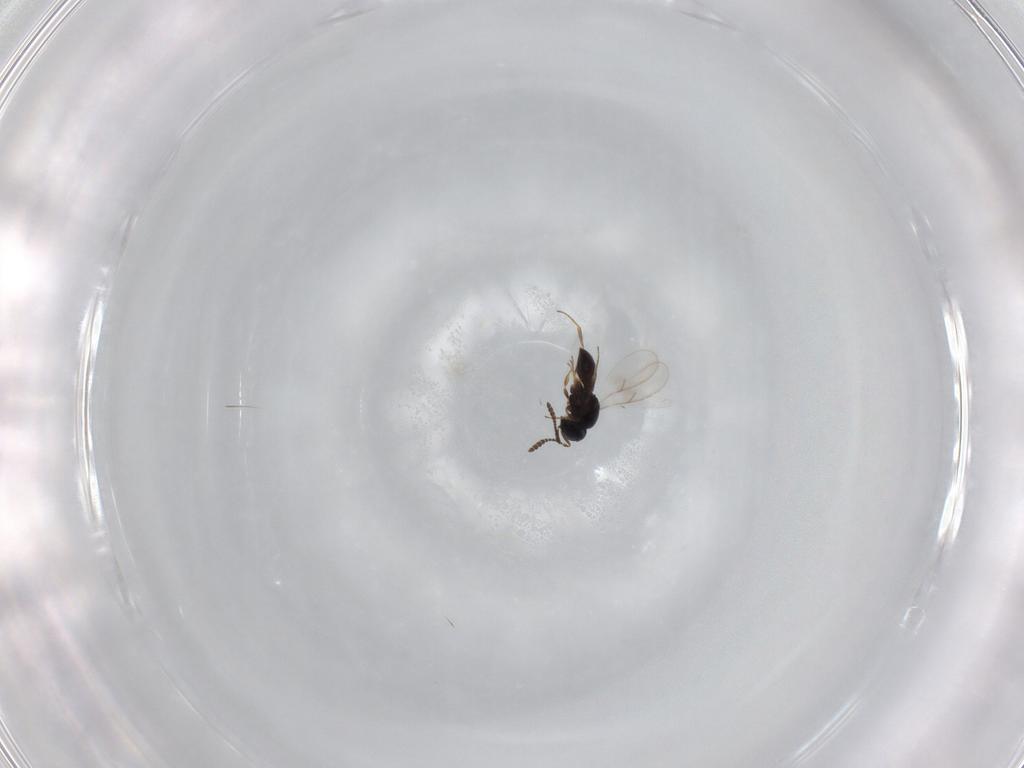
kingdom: Animalia
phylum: Arthropoda
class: Insecta
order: Hymenoptera
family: Scelionidae
